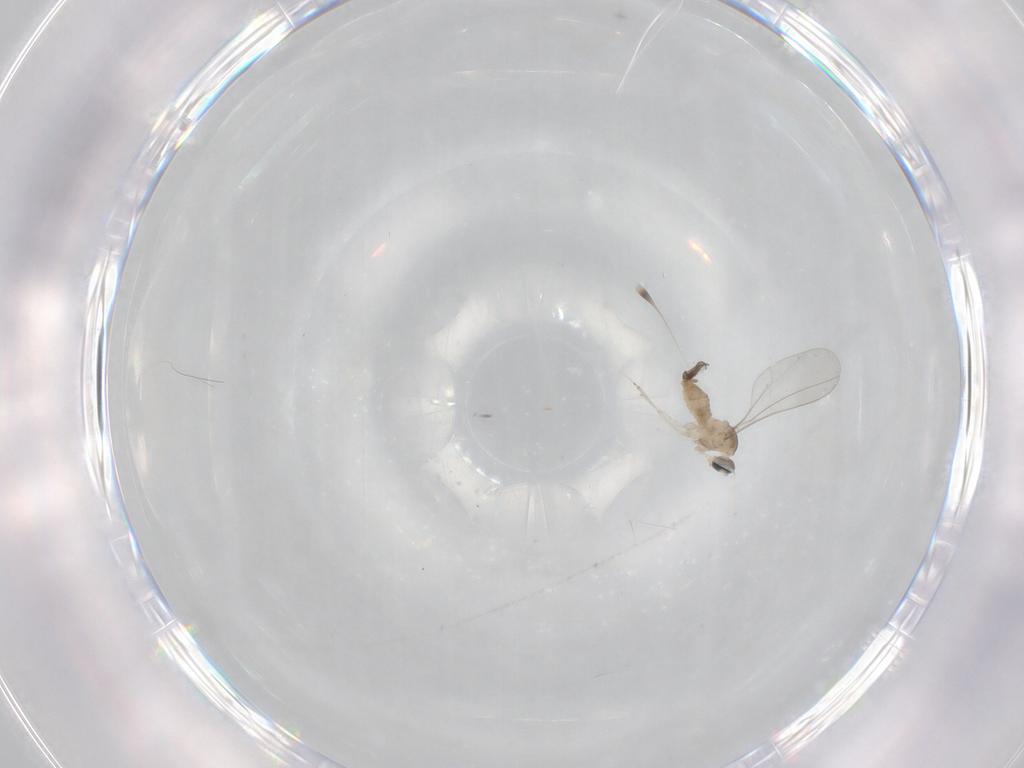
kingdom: Animalia
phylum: Arthropoda
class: Insecta
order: Diptera
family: Cecidomyiidae
